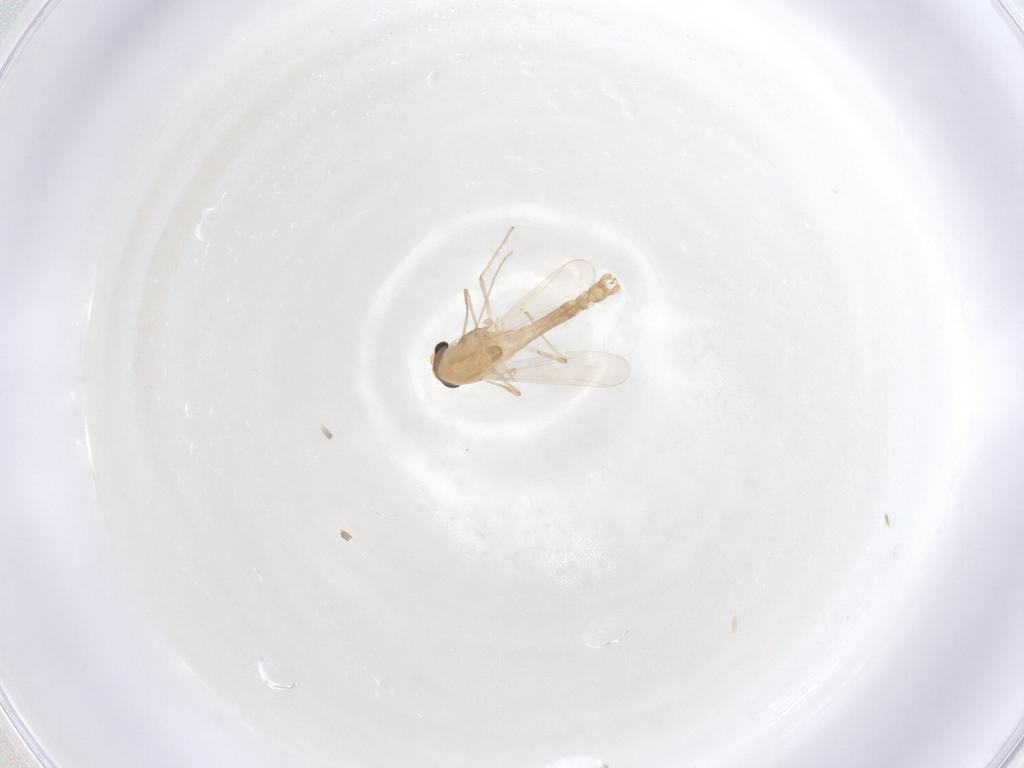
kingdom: Animalia
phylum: Arthropoda
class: Insecta
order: Diptera
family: Chironomidae
